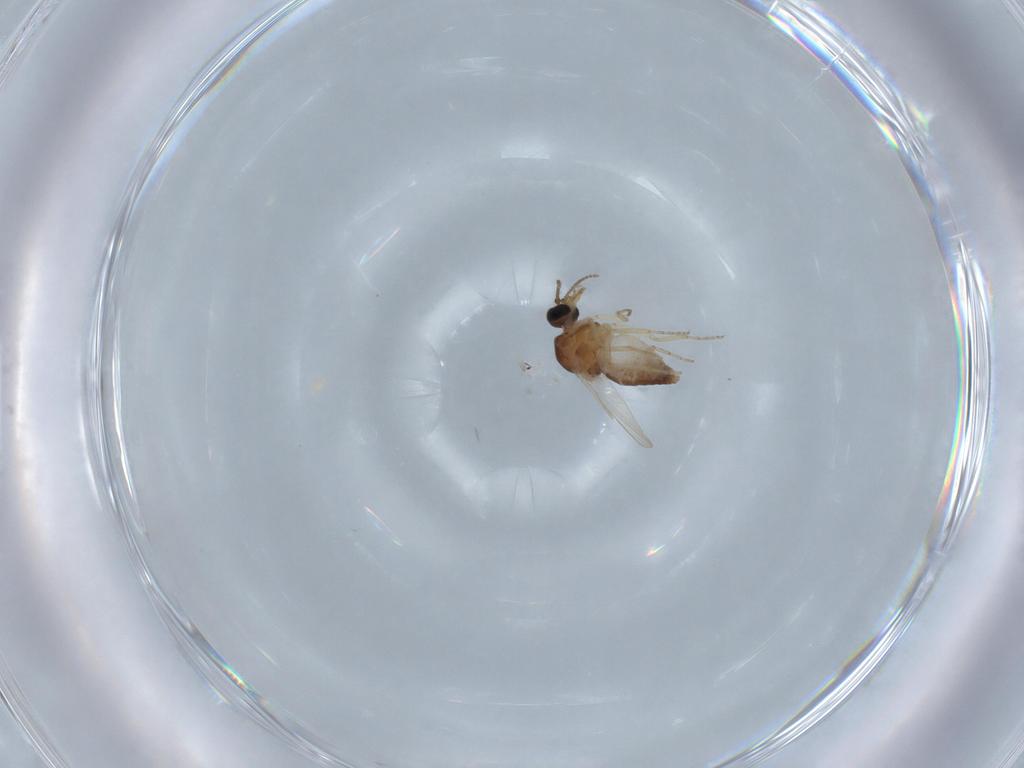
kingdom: Animalia
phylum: Arthropoda
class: Insecta
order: Diptera
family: Ceratopogonidae
